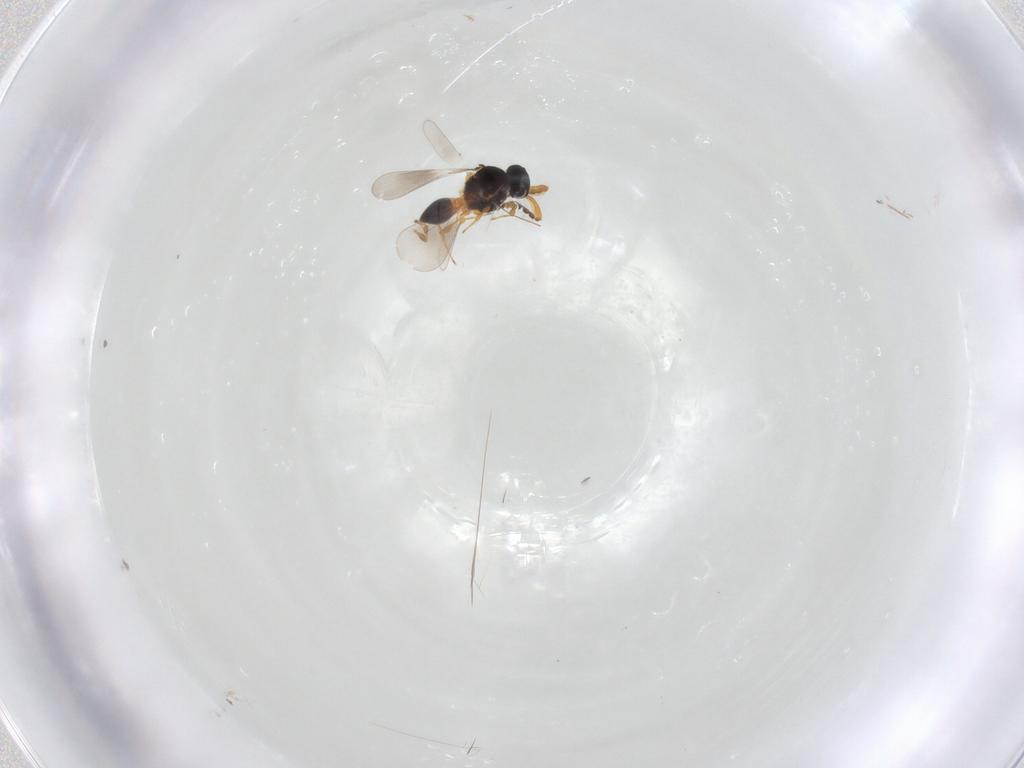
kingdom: Animalia
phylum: Arthropoda
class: Insecta
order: Hymenoptera
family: Platygastridae
